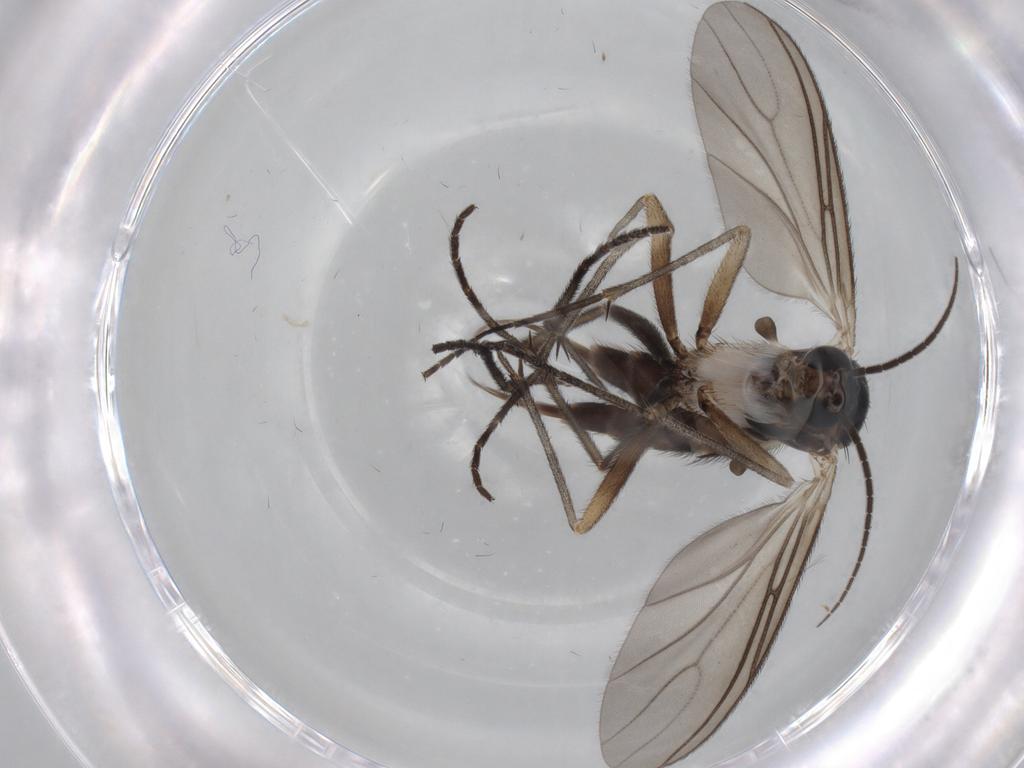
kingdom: Animalia
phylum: Arthropoda
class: Insecta
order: Diptera
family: Sciaridae
